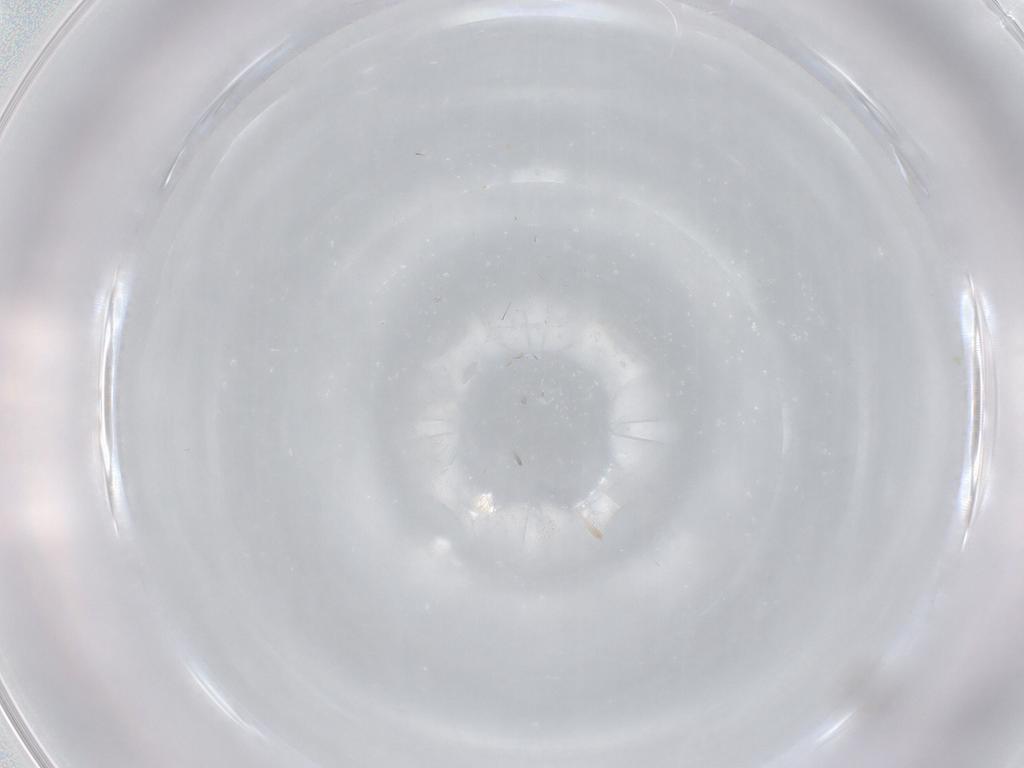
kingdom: Animalia
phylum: Arthropoda
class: Insecta
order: Diptera
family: Cecidomyiidae
